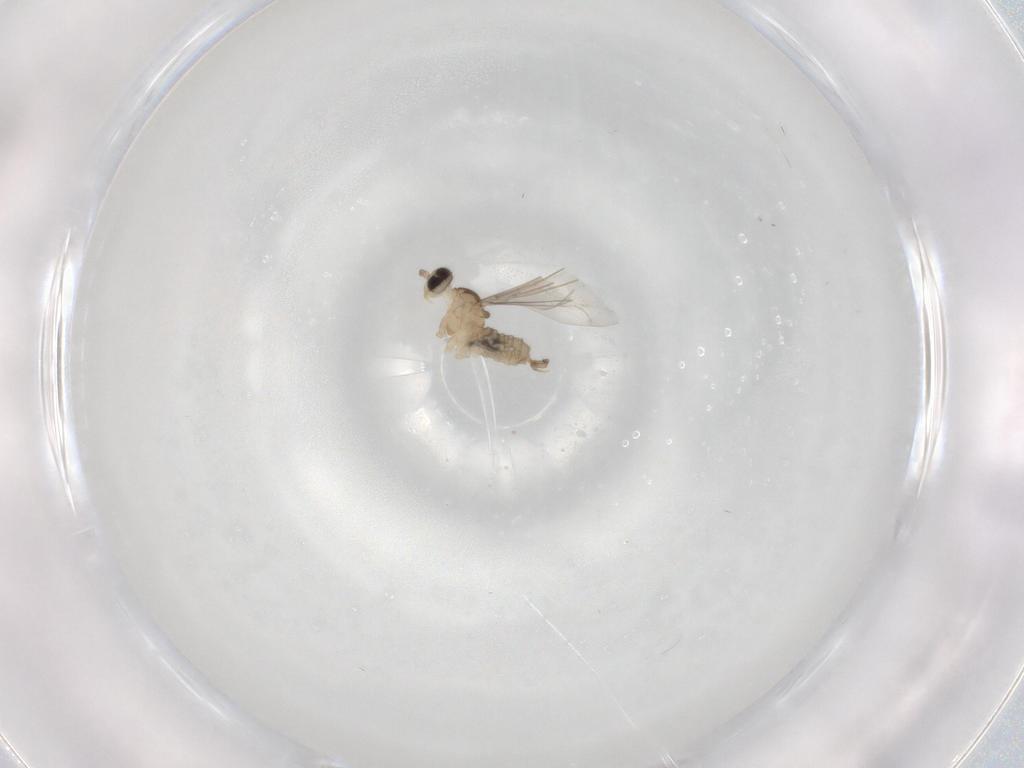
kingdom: Animalia
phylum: Arthropoda
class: Insecta
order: Diptera
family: Cecidomyiidae
